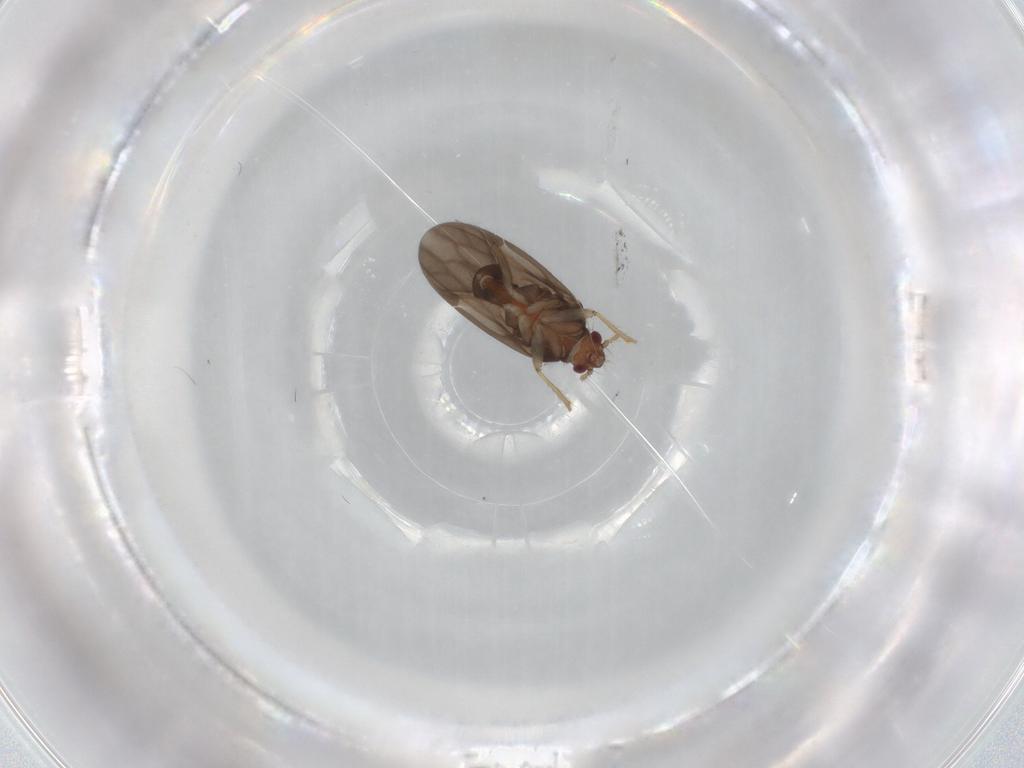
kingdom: Animalia
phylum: Arthropoda
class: Insecta
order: Hemiptera
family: Ceratocombidae
